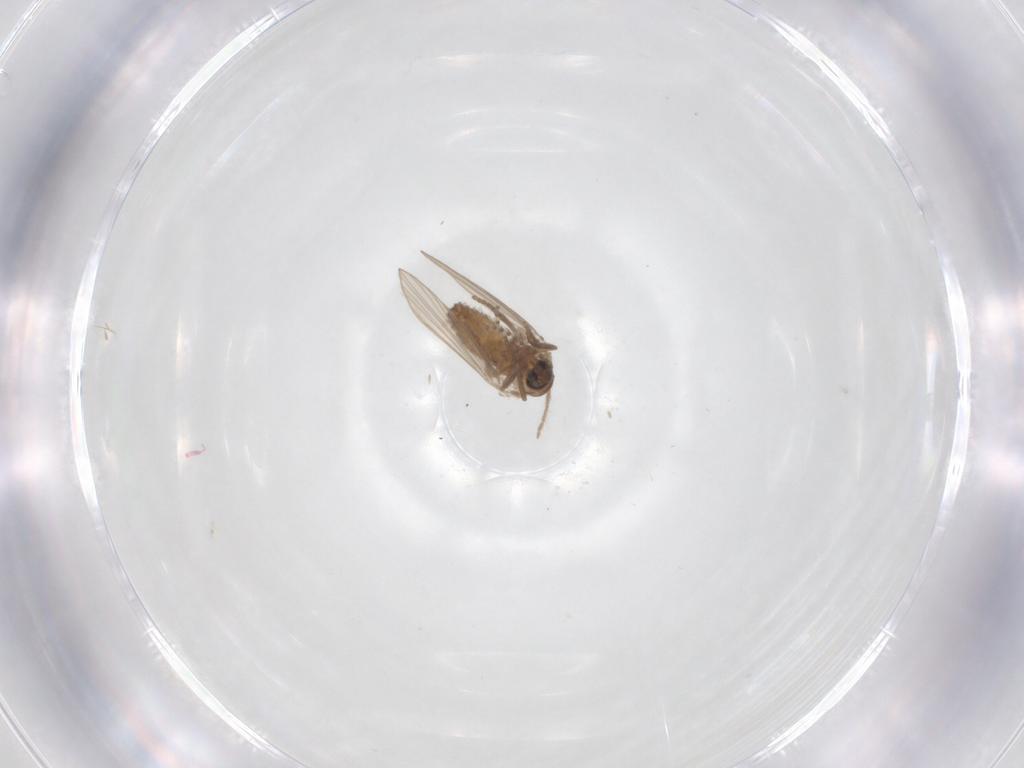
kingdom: Animalia
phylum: Arthropoda
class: Insecta
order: Diptera
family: Psychodidae
